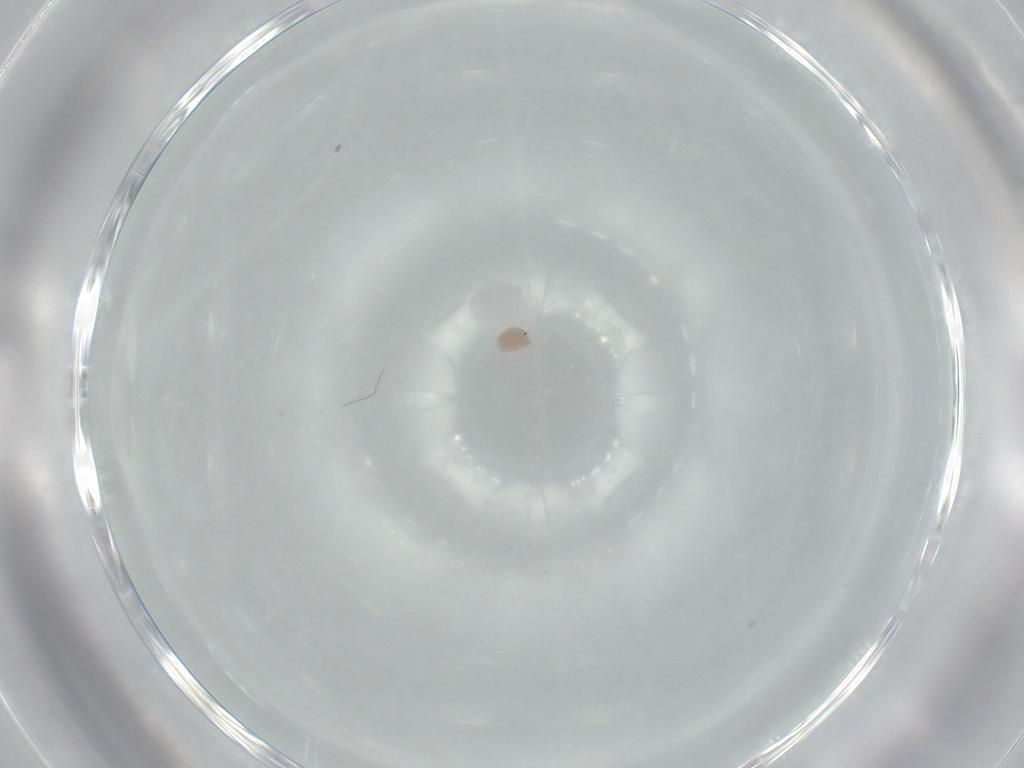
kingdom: Animalia
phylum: Arthropoda
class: Arachnida
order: Trombidiformes
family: Pionidae
